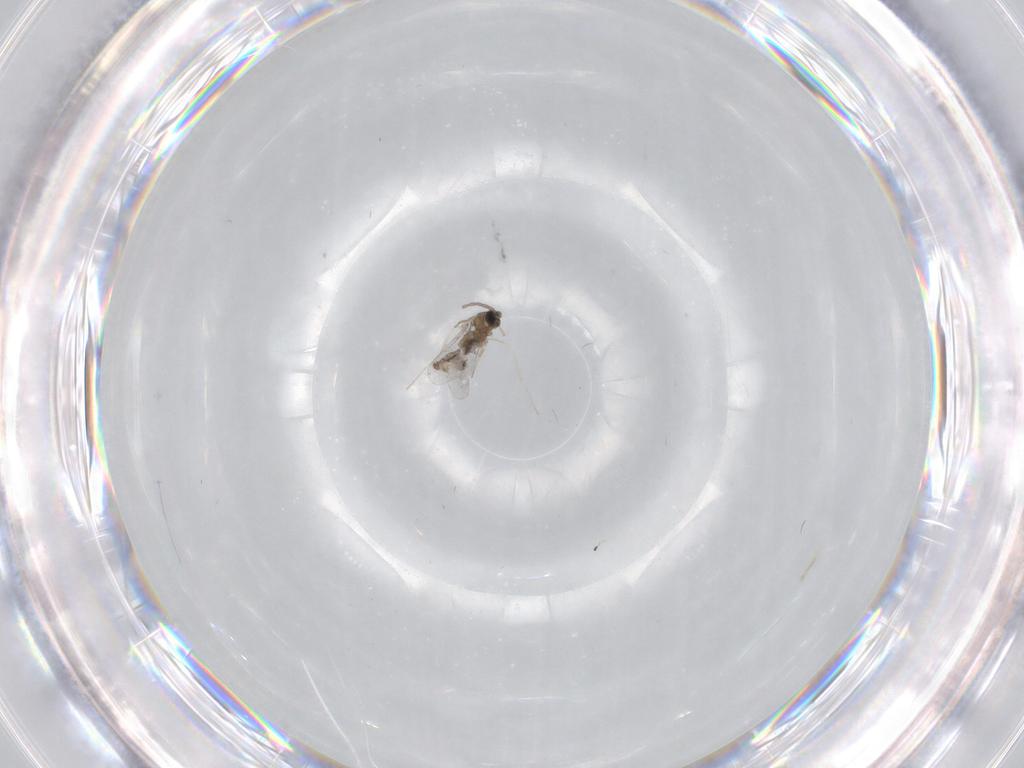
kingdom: Animalia
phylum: Arthropoda
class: Insecta
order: Diptera
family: Cecidomyiidae
